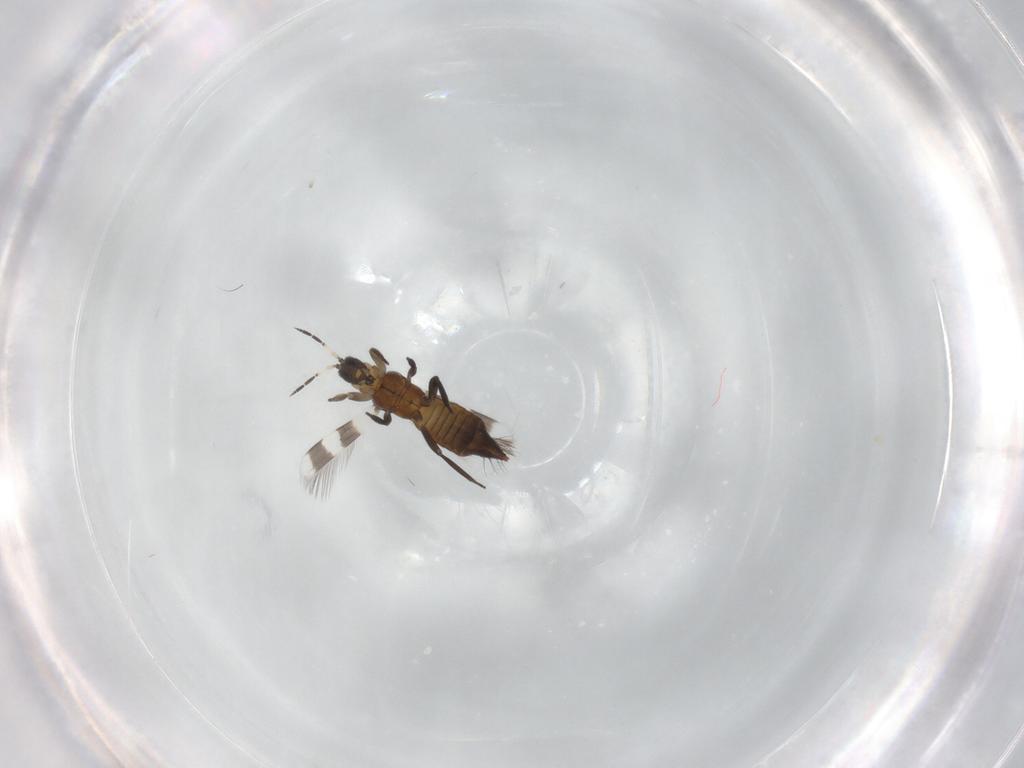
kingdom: Animalia
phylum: Arthropoda
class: Insecta
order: Thysanoptera
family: Aeolothripidae
